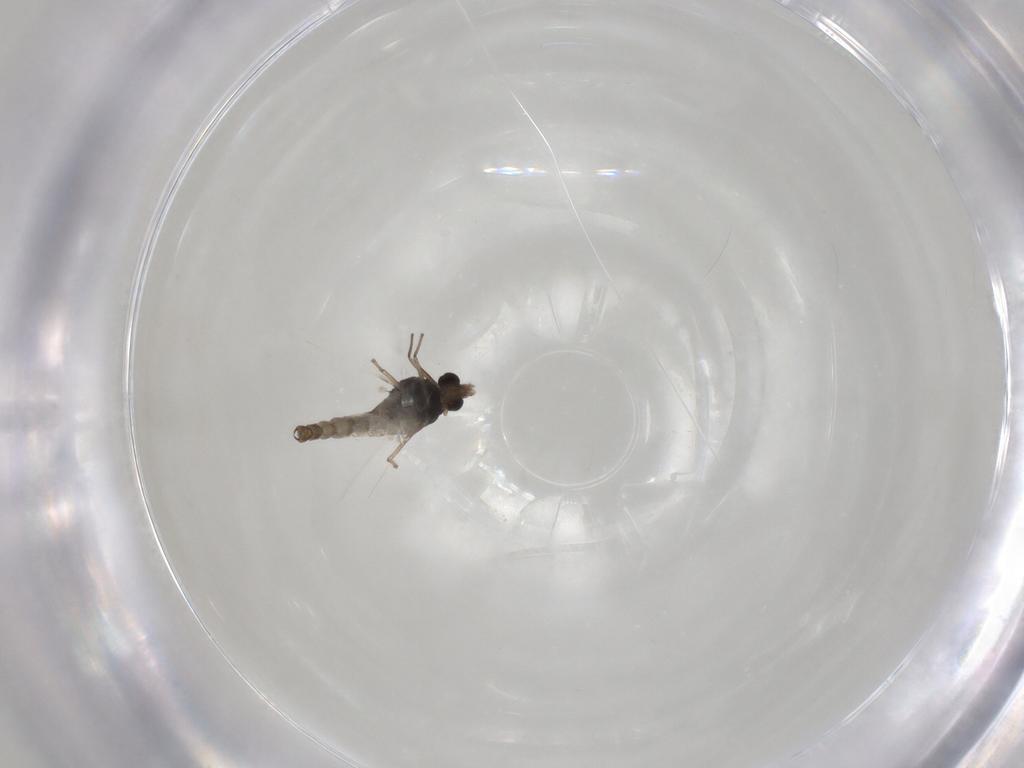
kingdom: Animalia
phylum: Arthropoda
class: Insecta
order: Diptera
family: Chironomidae
